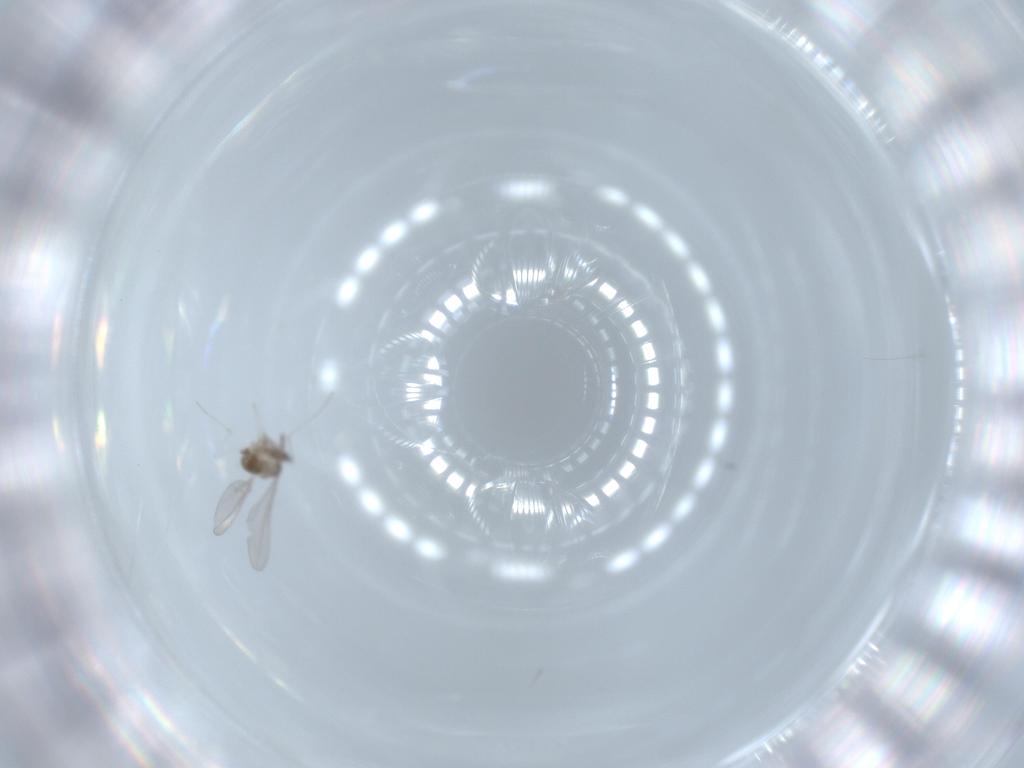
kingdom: Animalia
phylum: Arthropoda
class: Insecta
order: Diptera
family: Cecidomyiidae
